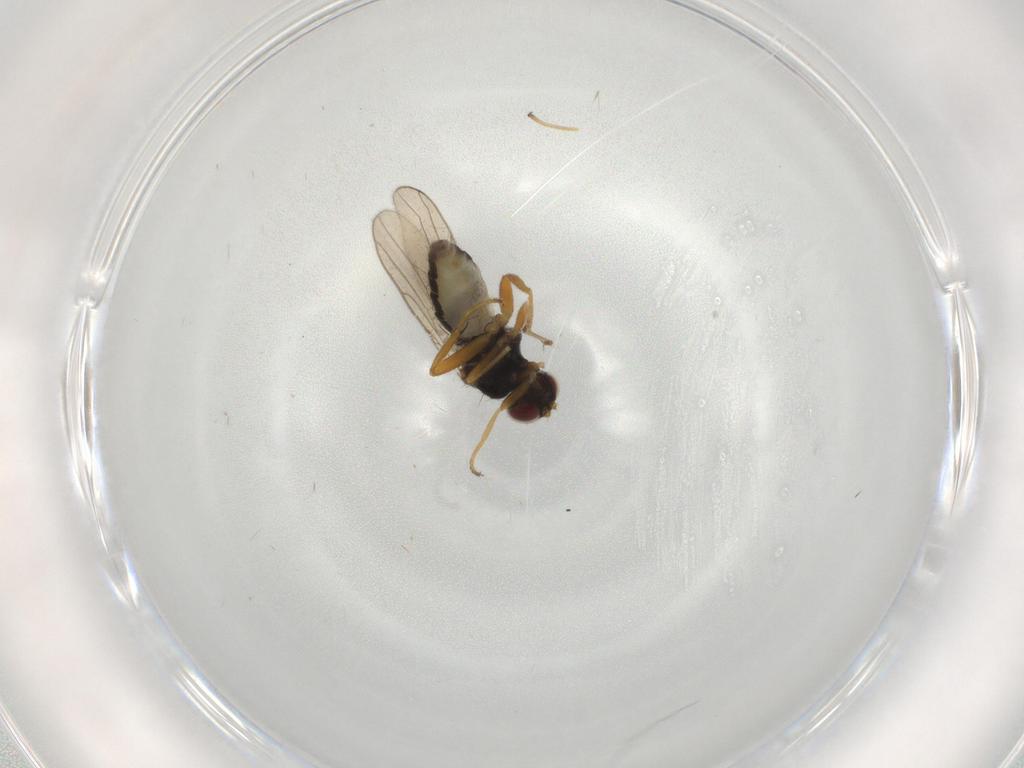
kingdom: Animalia
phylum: Arthropoda
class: Insecta
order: Diptera
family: Chloropidae
